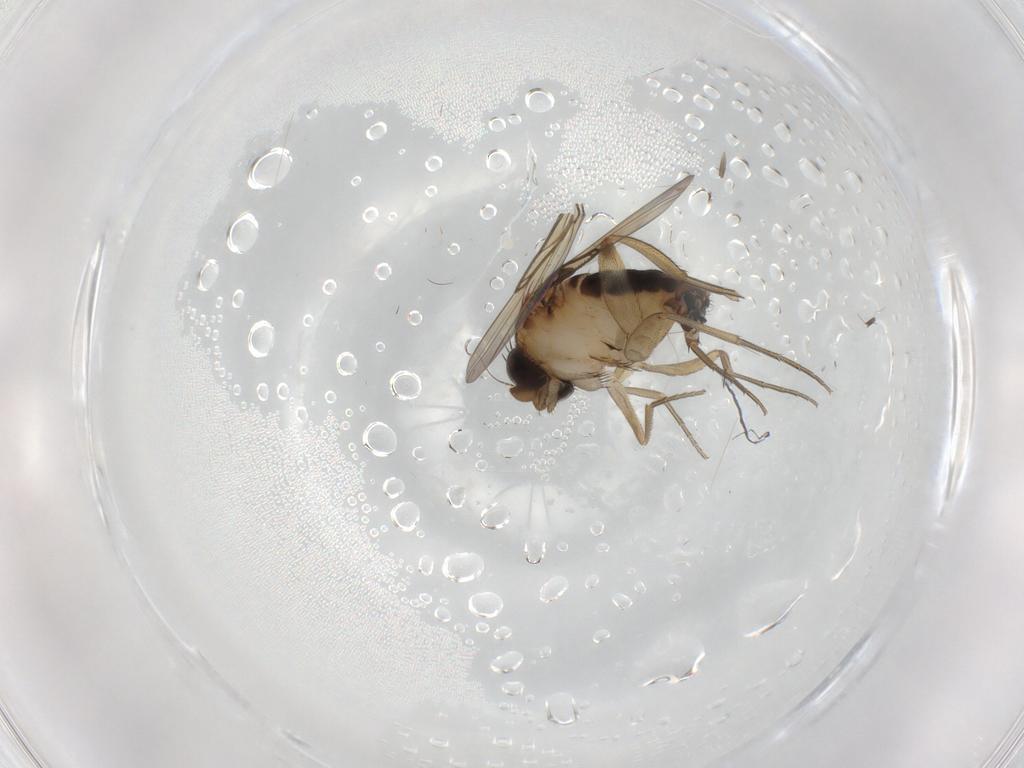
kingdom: Animalia
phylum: Arthropoda
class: Insecta
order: Diptera
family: Phoridae
